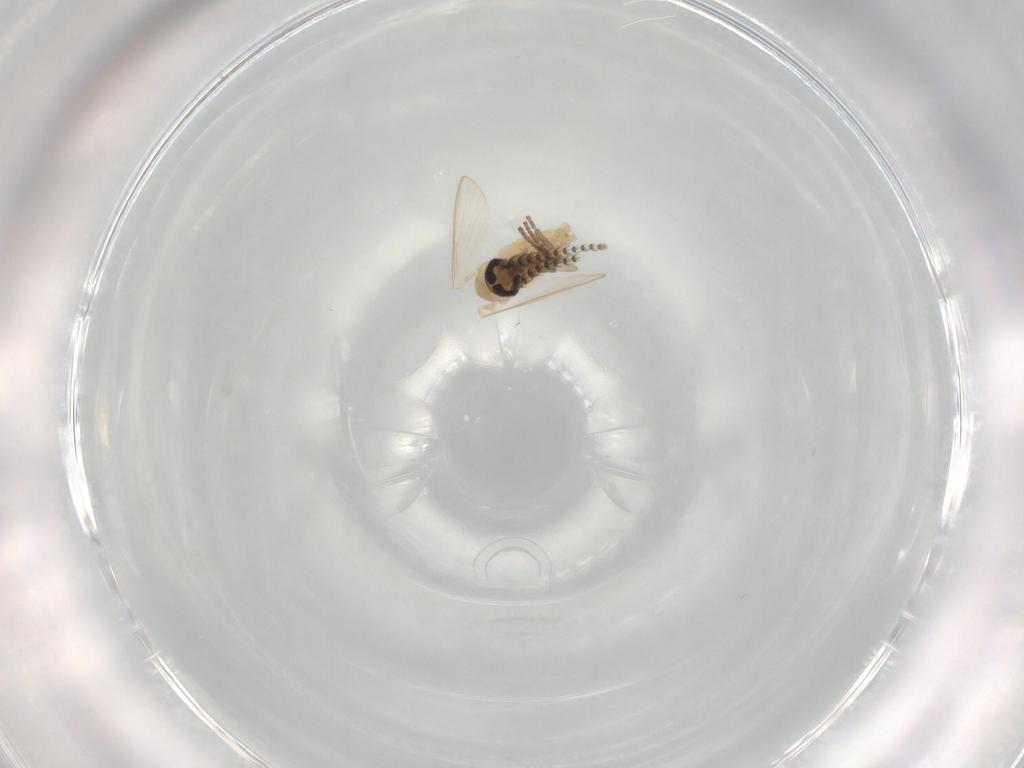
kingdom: Animalia
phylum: Arthropoda
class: Insecta
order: Diptera
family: Psychodidae
